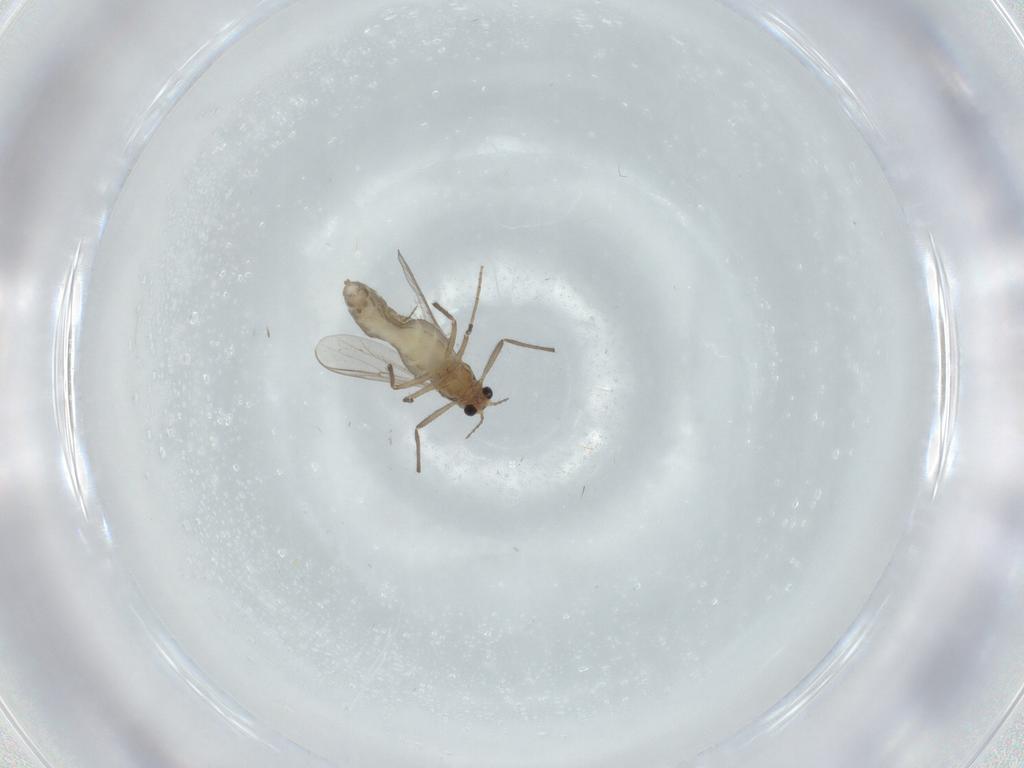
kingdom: Animalia
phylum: Arthropoda
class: Insecta
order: Diptera
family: Chironomidae
